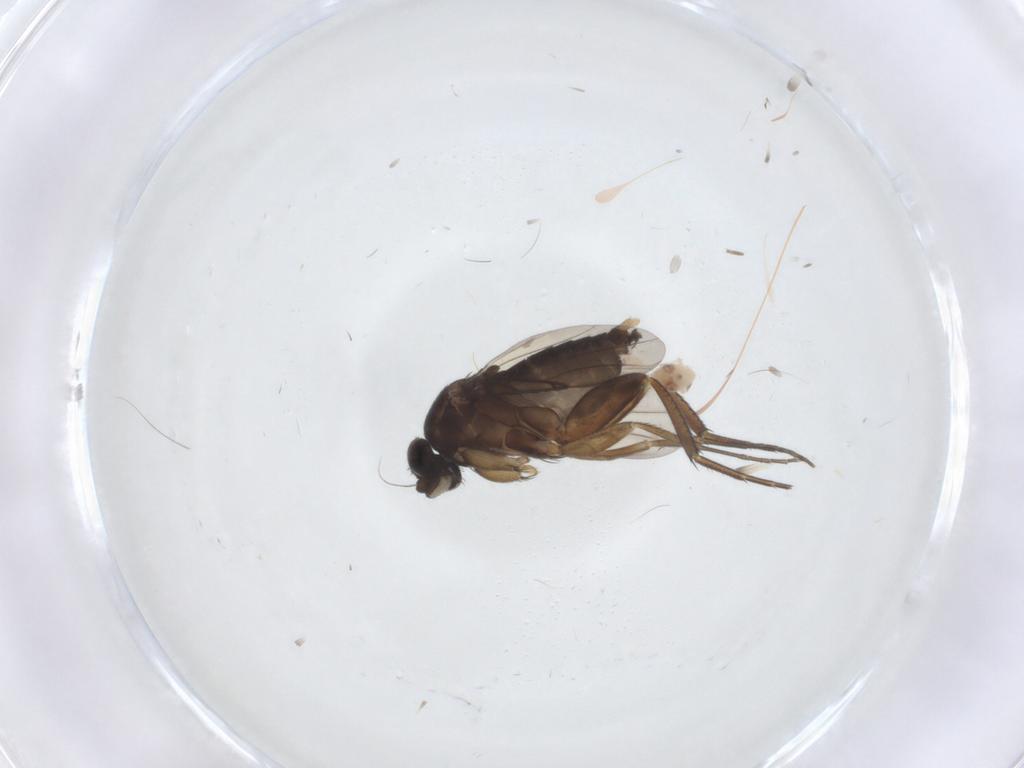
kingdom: Animalia
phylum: Arthropoda
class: Insecta
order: Diptera
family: Phoridae
